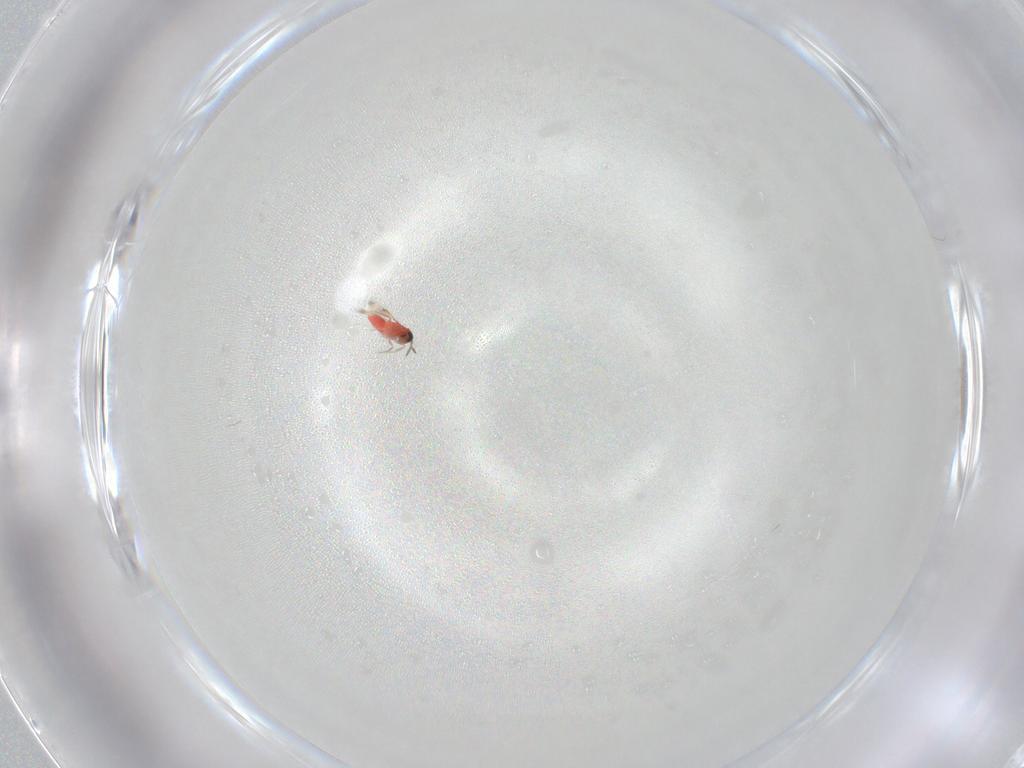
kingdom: Animalia
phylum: Arthropoda
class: Insecta
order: Hymenoptera
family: Trichogrammatidae
